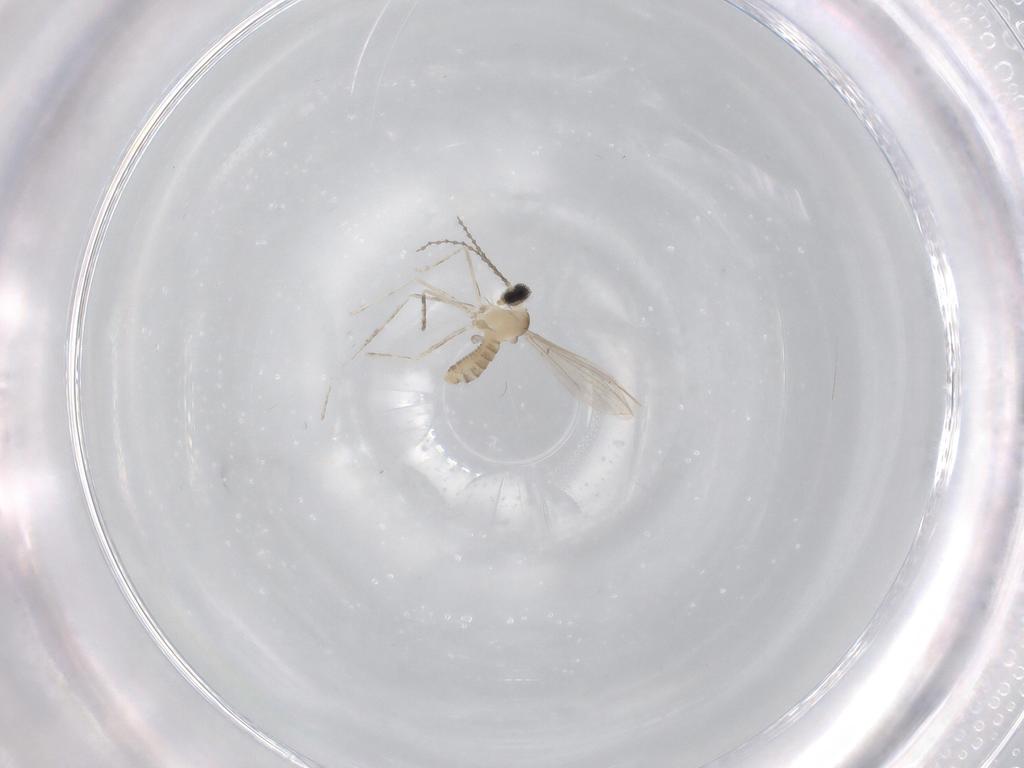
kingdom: Animalia
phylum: Arthropoda
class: Insecta
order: Diptera
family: Cecidomyiidae
